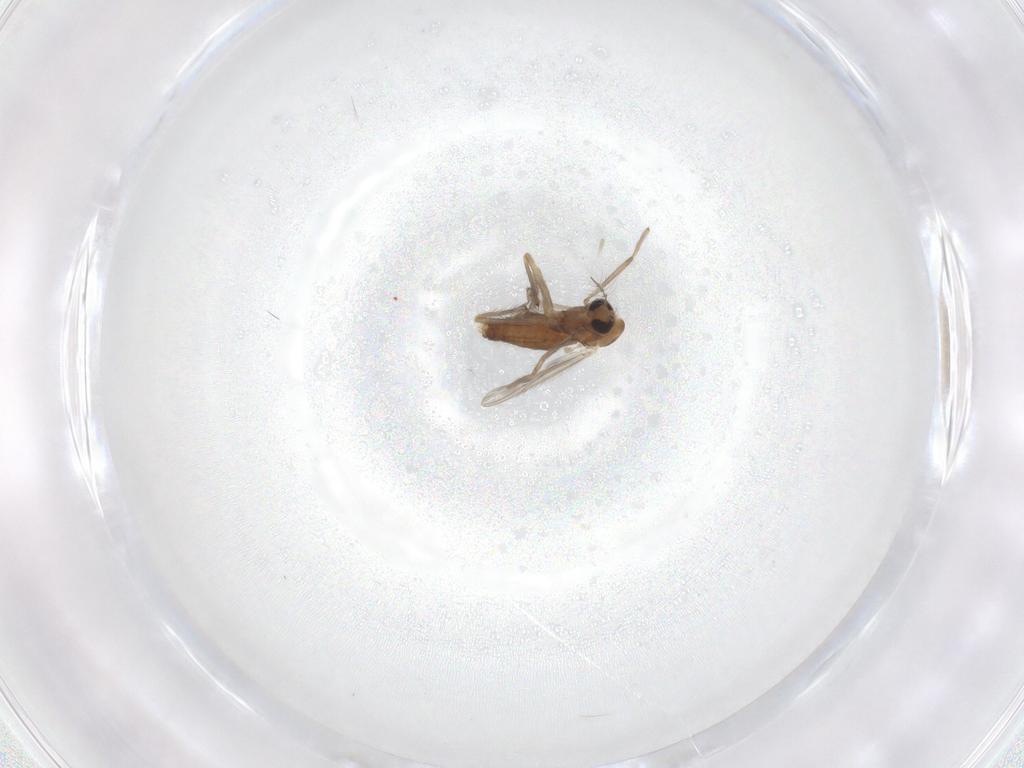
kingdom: Animalia
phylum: Arthropoda
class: Insecta
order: Diptera
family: Chironomidae
